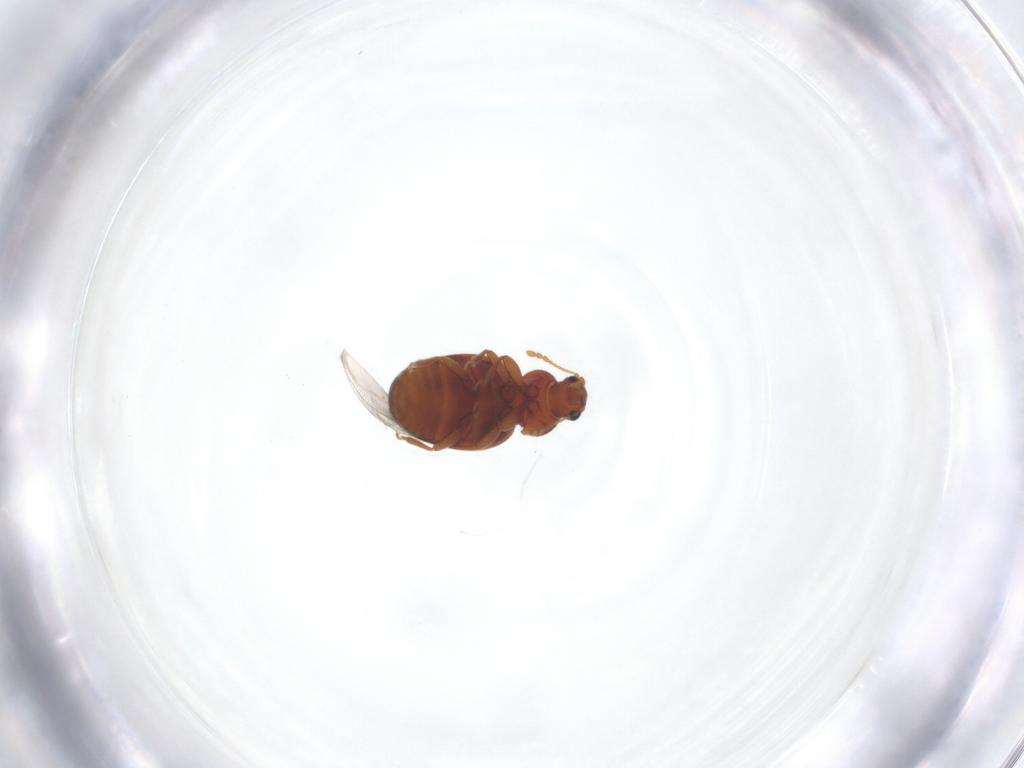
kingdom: Animalia
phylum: Arthropoda
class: Insecta
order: Coleoptera
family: Latridiidae
